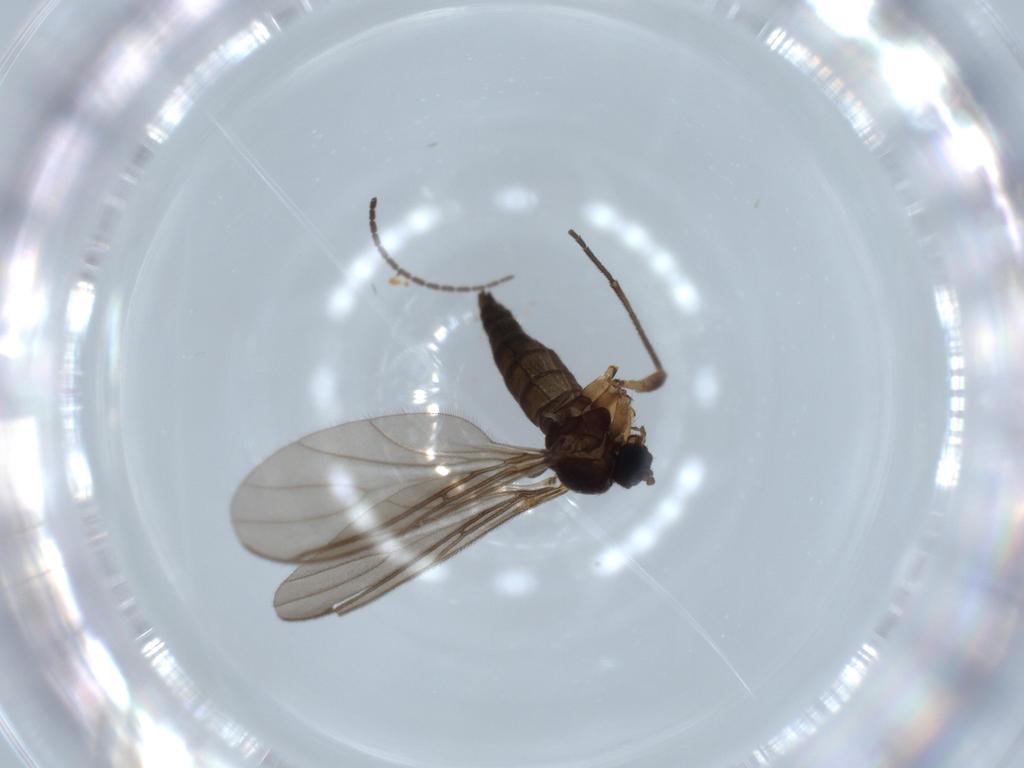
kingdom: Animalia
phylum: Arthropoda
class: Insecta
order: Diptera
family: Sciaridae
